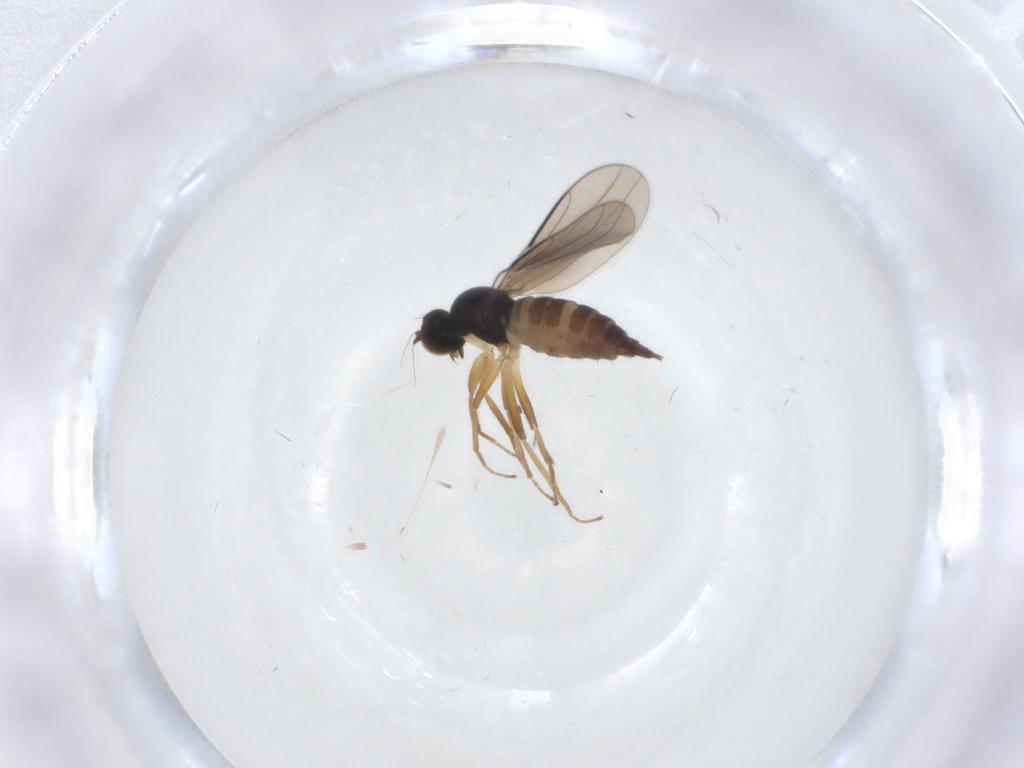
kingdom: Animalia
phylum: Arthropoda
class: Insecta
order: Diptera
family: Hybotidae
